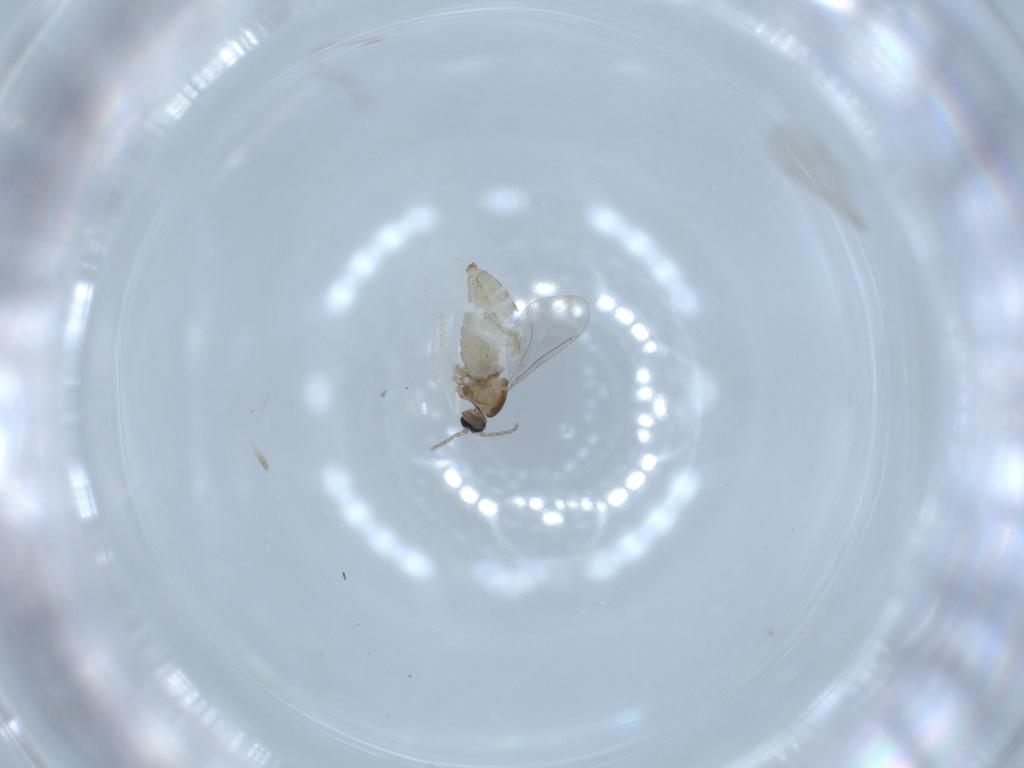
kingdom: Animalia
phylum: Arthropoda
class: Insecta
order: Diptera
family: Cecidomyiidae
